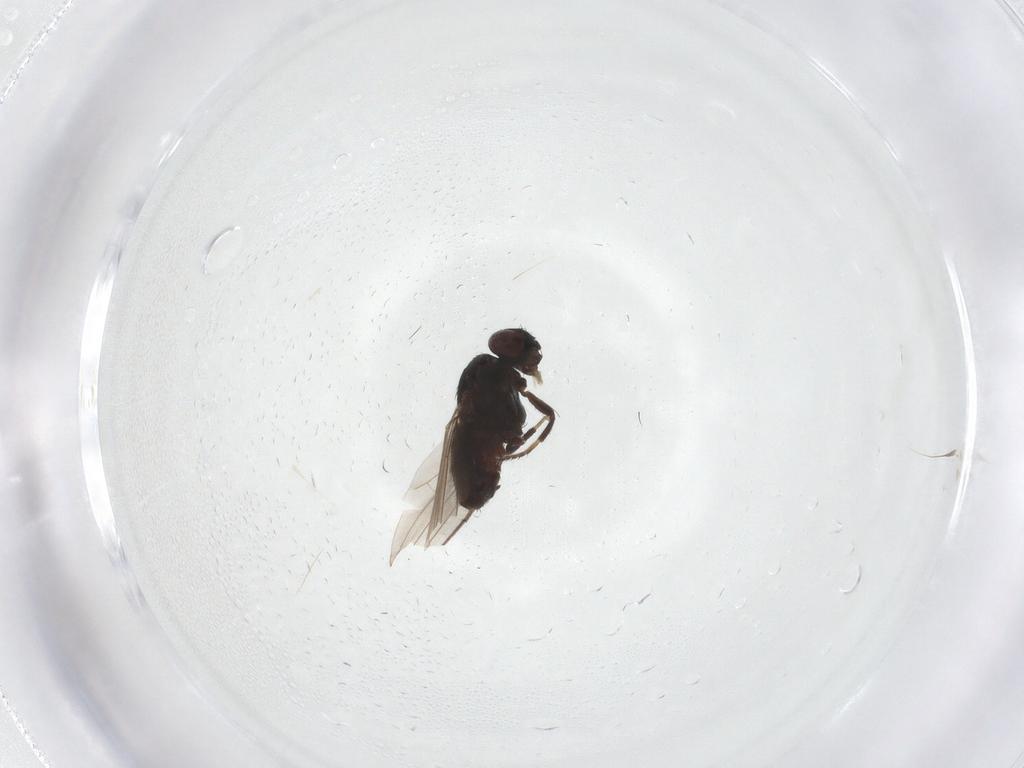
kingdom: Animalia
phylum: Arthropoda
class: Insecta
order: Diptera
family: Milichiidae
